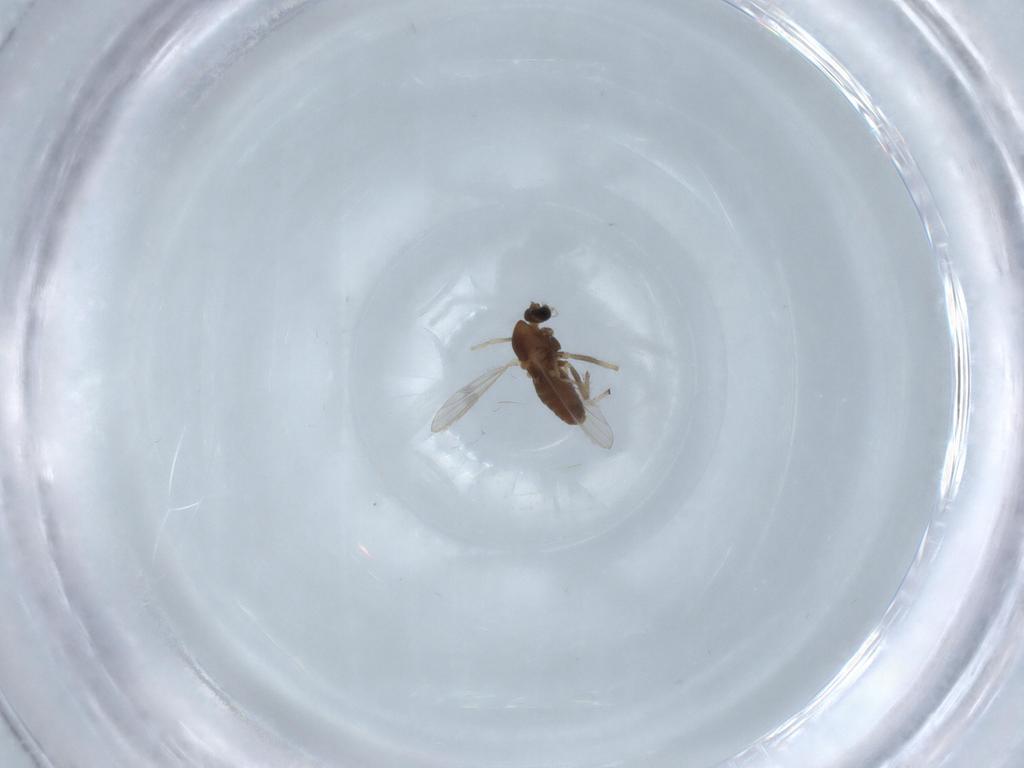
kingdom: Animalia
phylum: Arthropoda
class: Insecta
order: Diptera
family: Chironomidae
